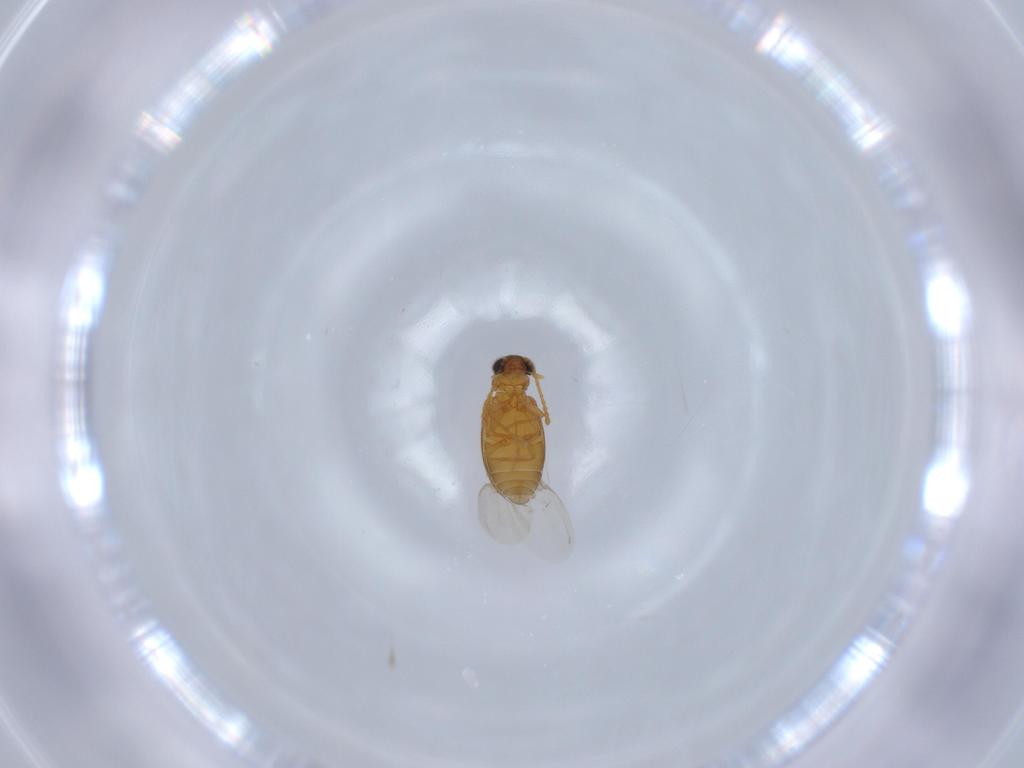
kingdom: Animalia
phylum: Arthropoda
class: Insecta
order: Coleoptera
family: Aderidae
